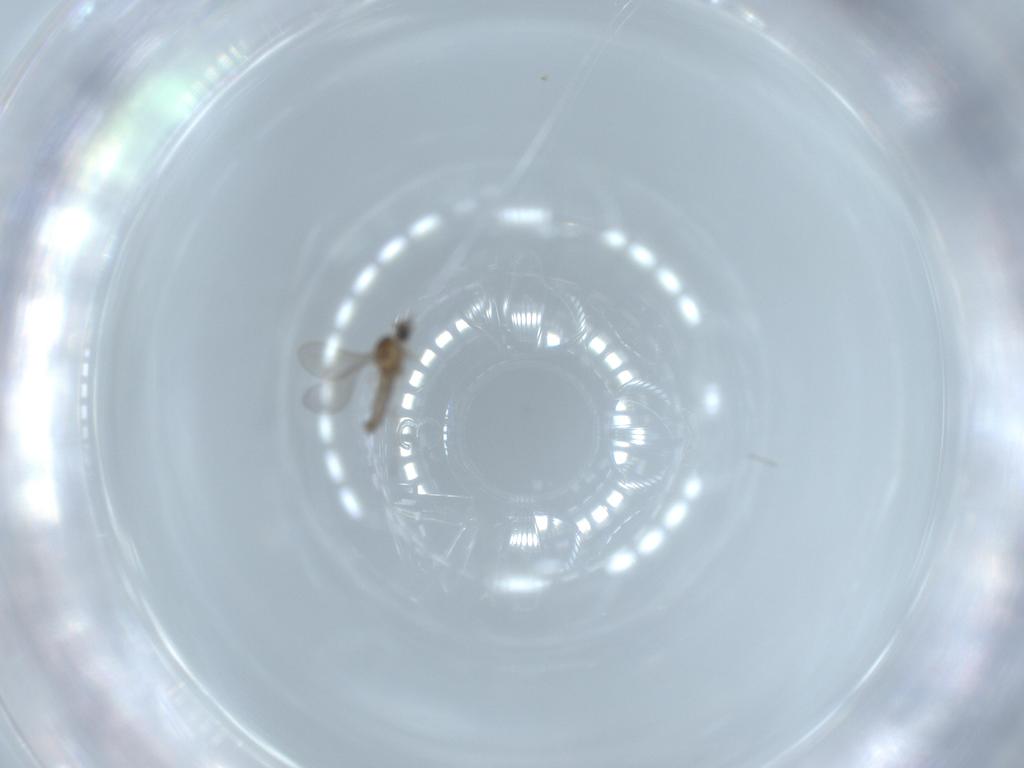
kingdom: Animalia
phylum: Arthropoda
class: Insecta
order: Diptera
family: Cecidomyiidae
